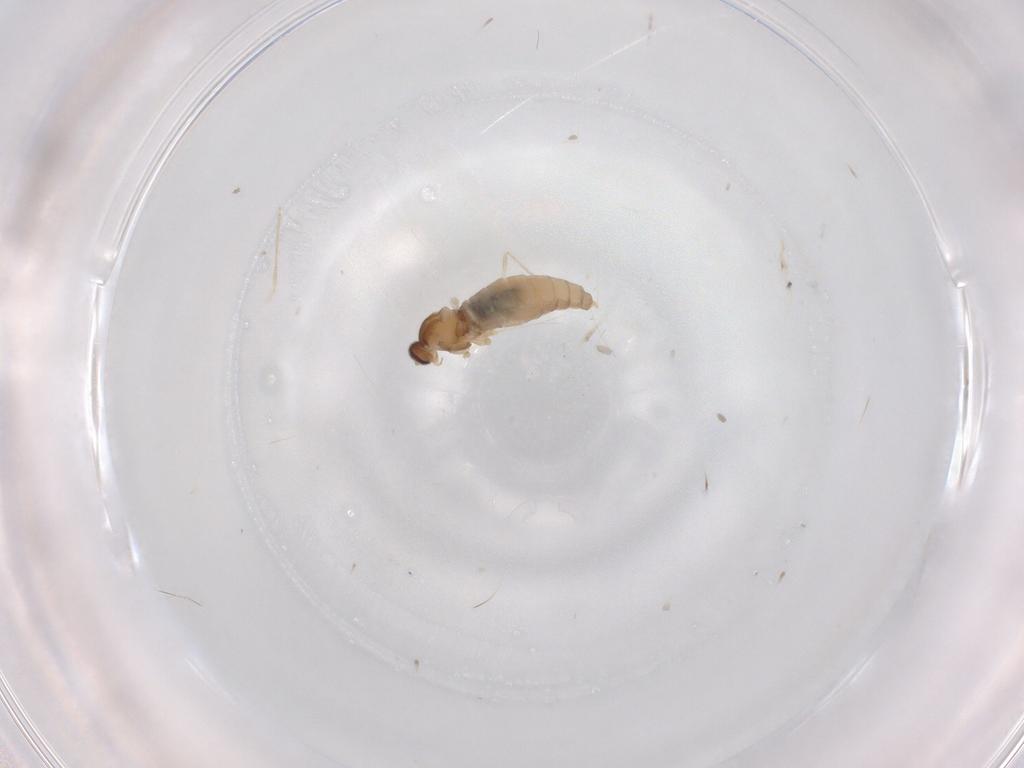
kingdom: Animalia
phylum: Arthropoda
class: Insecta
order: Diptera
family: Cecidomyiidae
